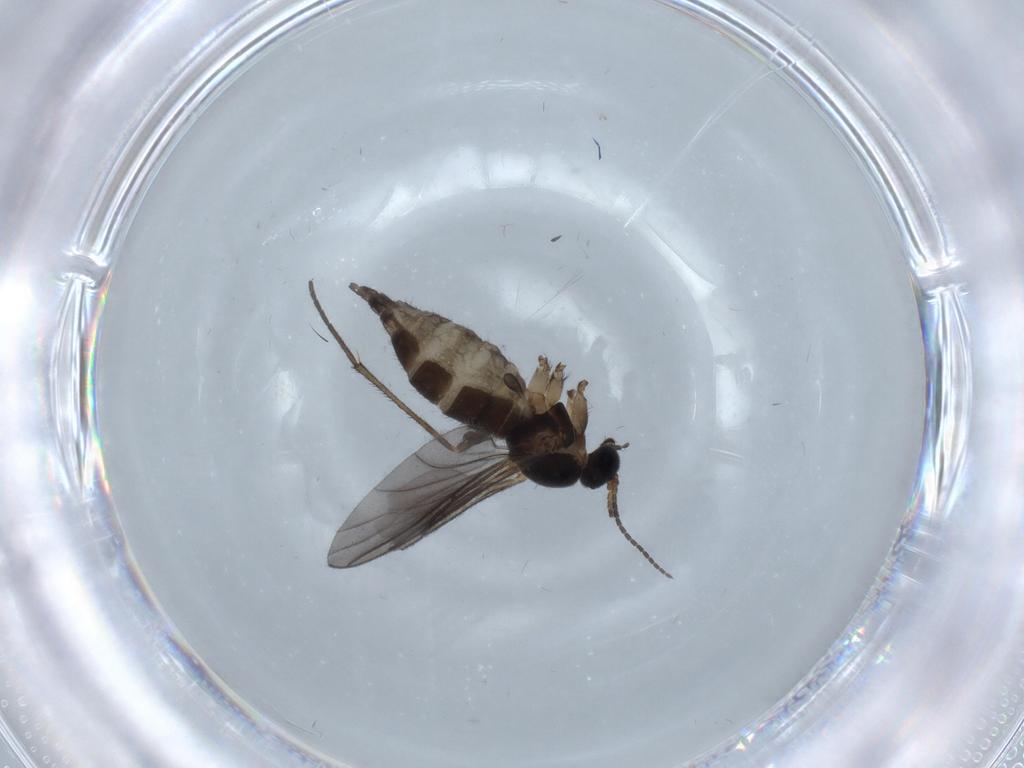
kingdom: Animalia
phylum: Arthropoda
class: Insecta
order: Diptera
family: Sciaridae
